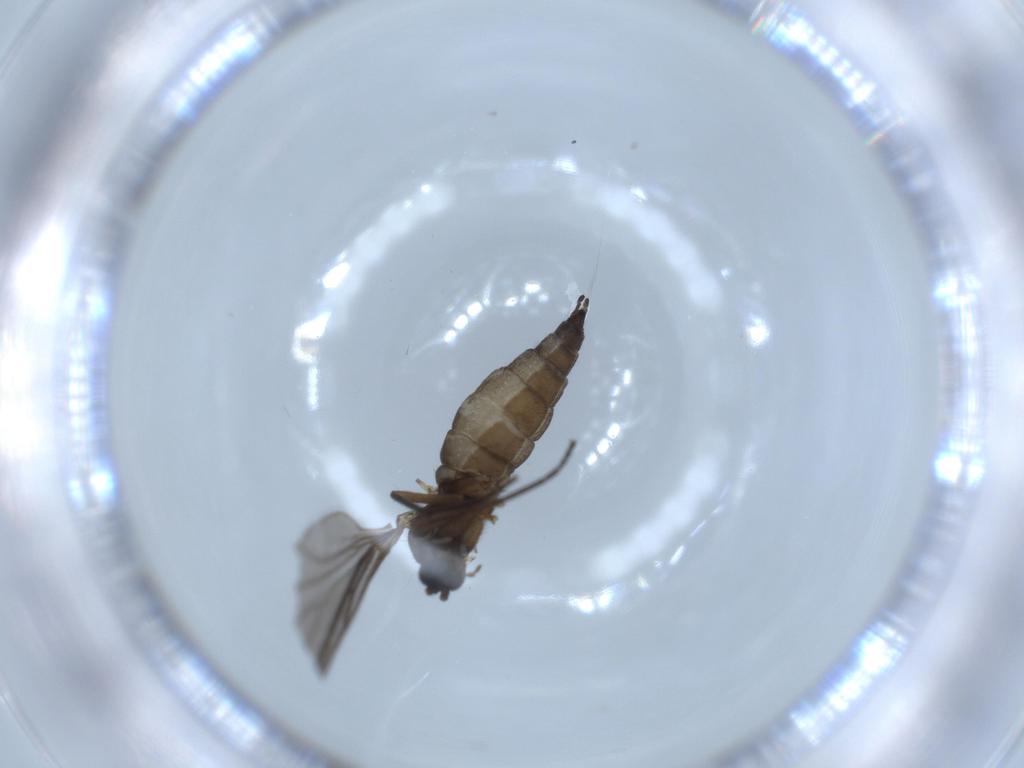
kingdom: Animalia
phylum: Arthropoda
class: Insecta
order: Diptera
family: Sciaridae
